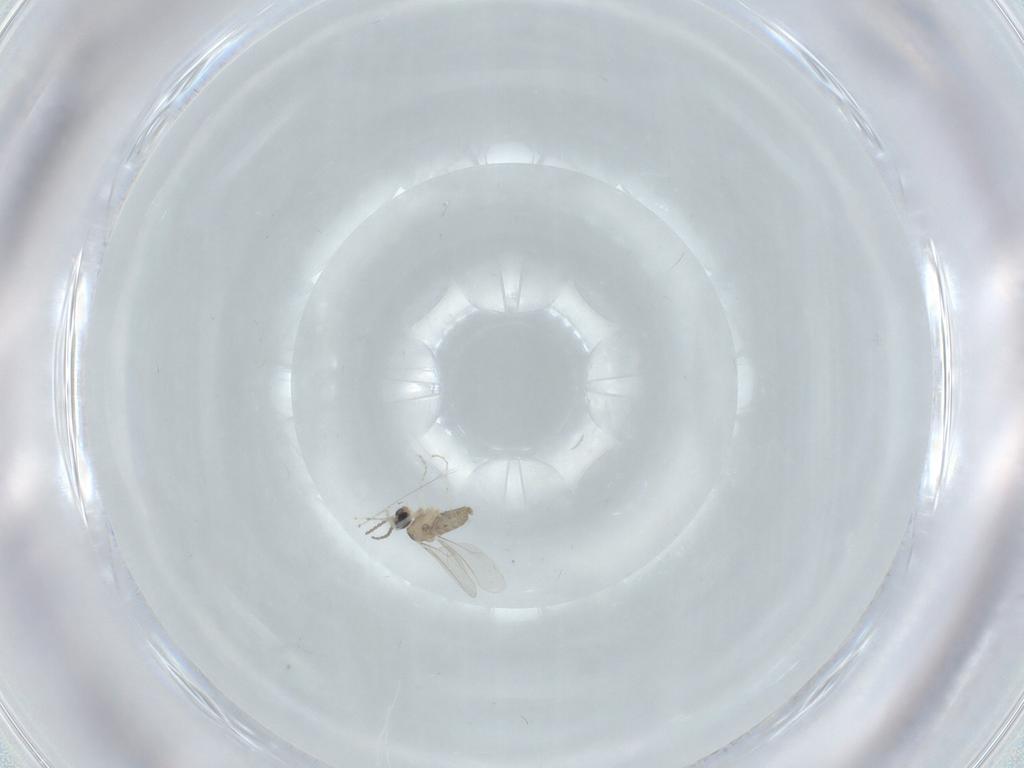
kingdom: Animalia
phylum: Arthropoda
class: Insecta
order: Diptera
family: Cecidomyiidae
